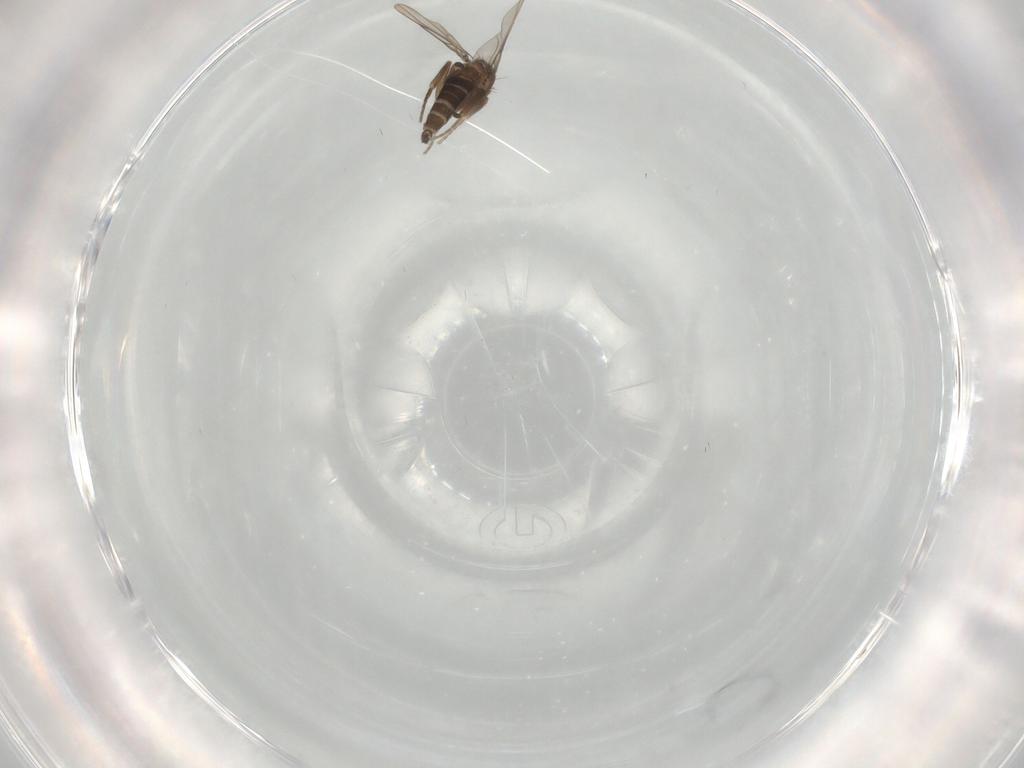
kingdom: Animalia
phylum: Arthropoda
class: Insecta
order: Diptera
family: Phoridae
